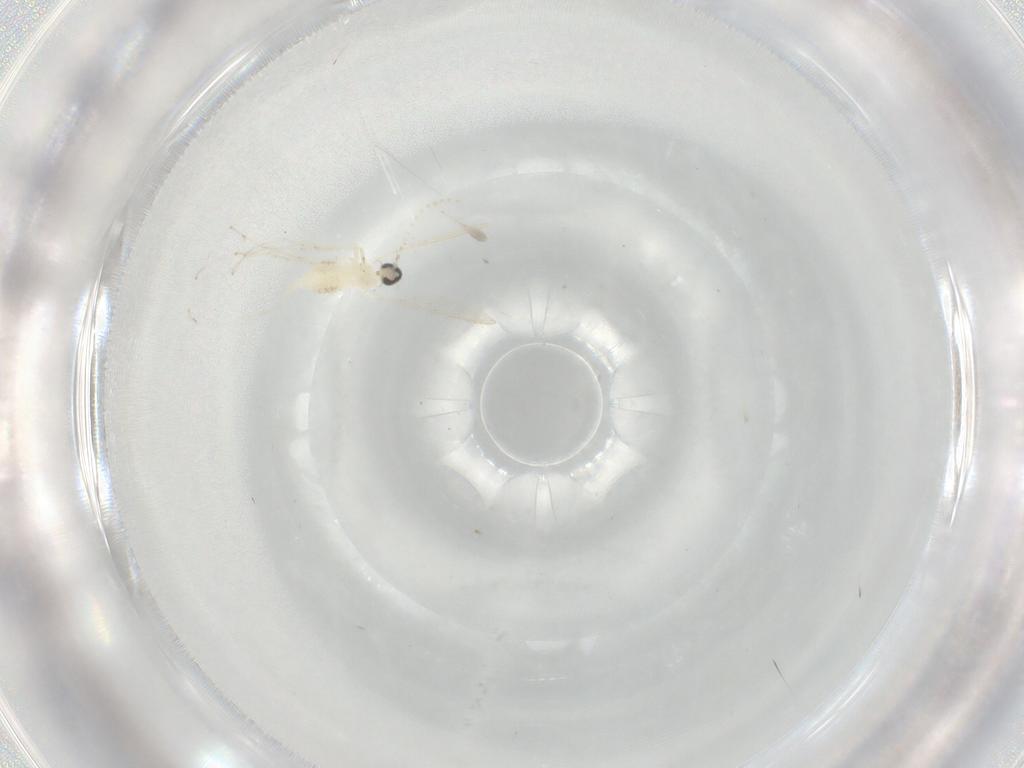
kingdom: Animalia
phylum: Arthropoda
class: Insecta
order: Diptera
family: Cecidomyiidae
